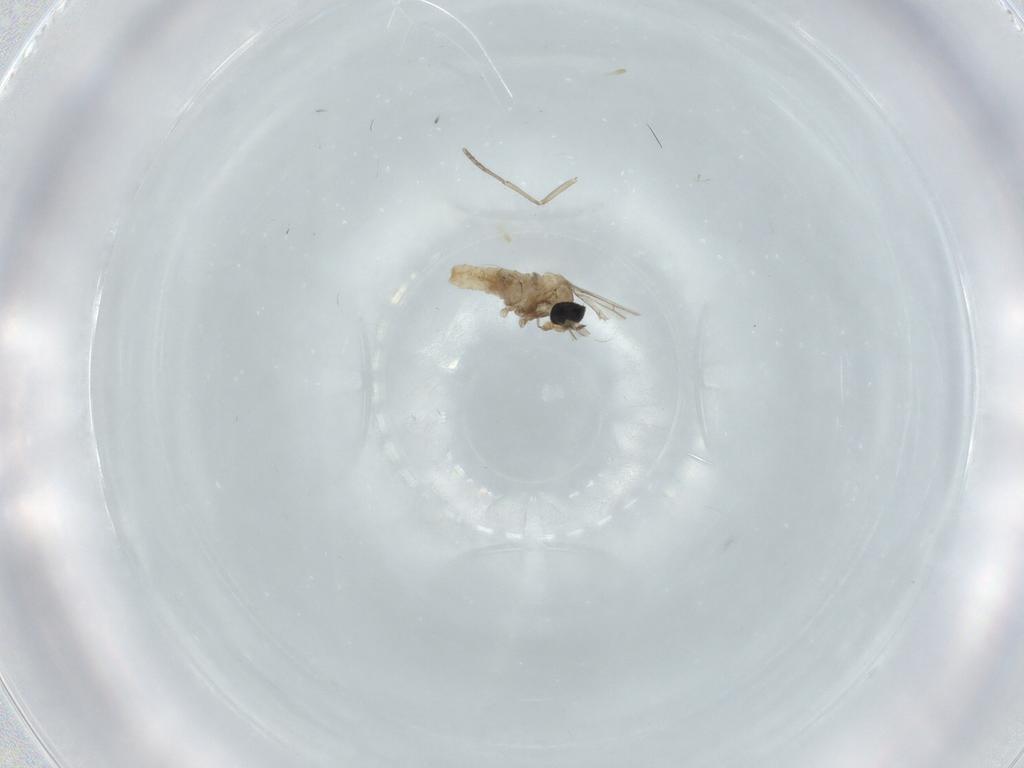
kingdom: Animalia
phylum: Arthropoda
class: Insecta
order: Diptera
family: Cecidomyiidae
